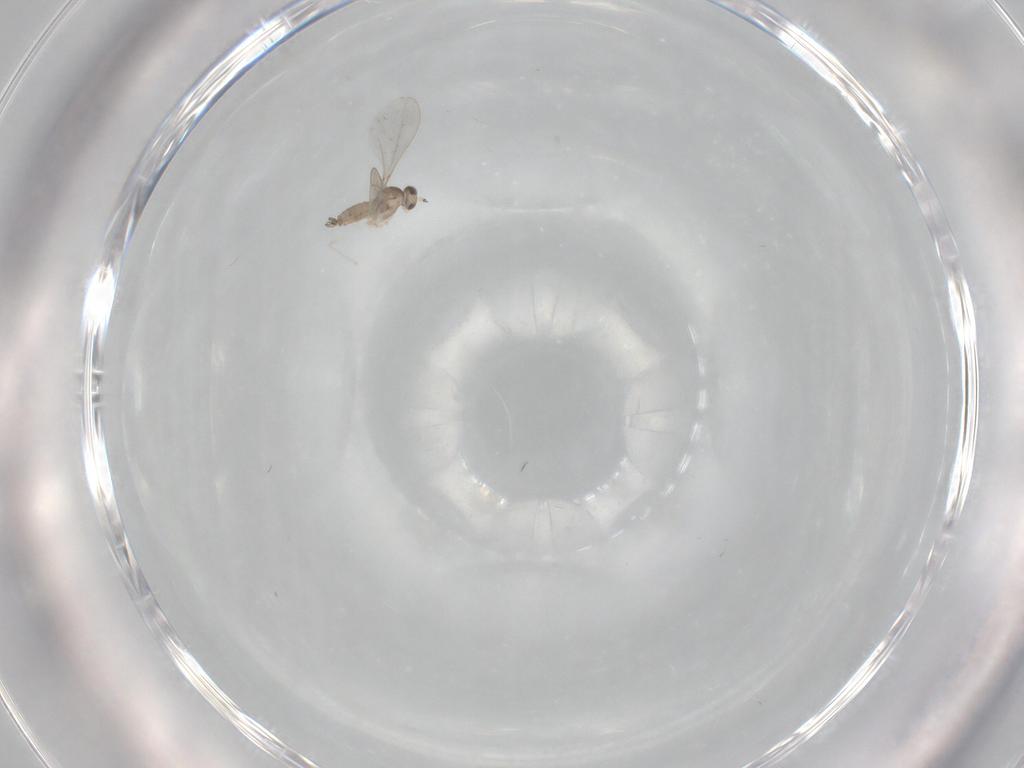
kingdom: Animalia
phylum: Arthropoda
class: Insecta
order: Diptera
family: Cecidomyiidae
